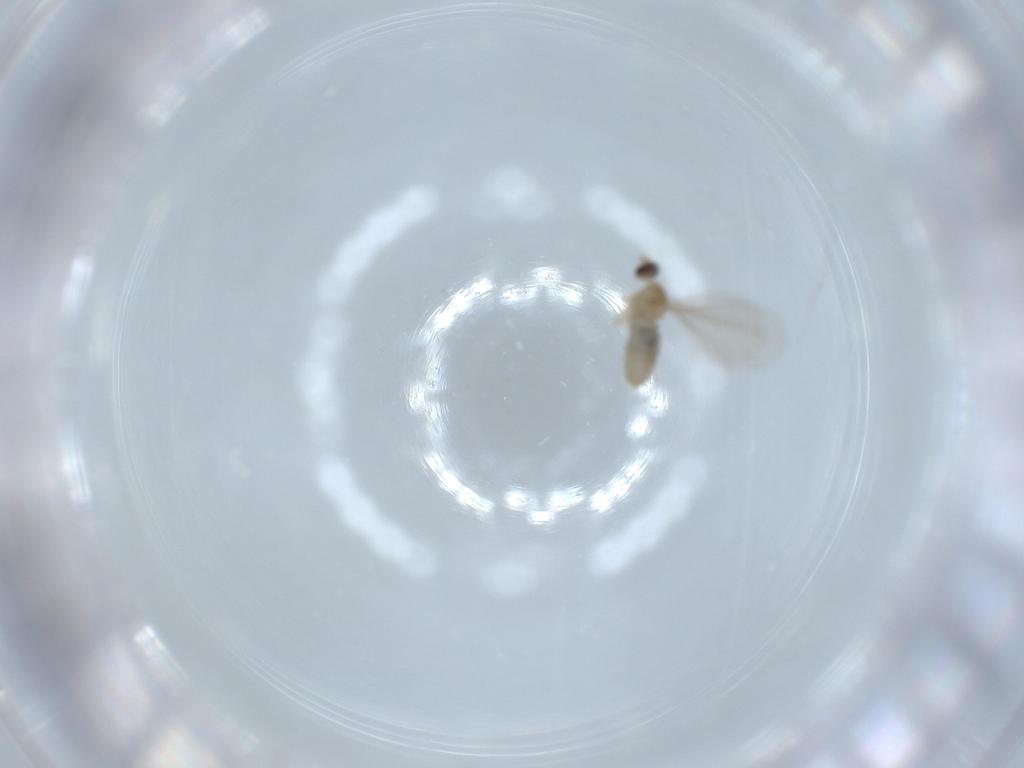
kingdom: Animalia
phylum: Arthropoda
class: Insecta
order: Diptera
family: Cecidomyiidae
